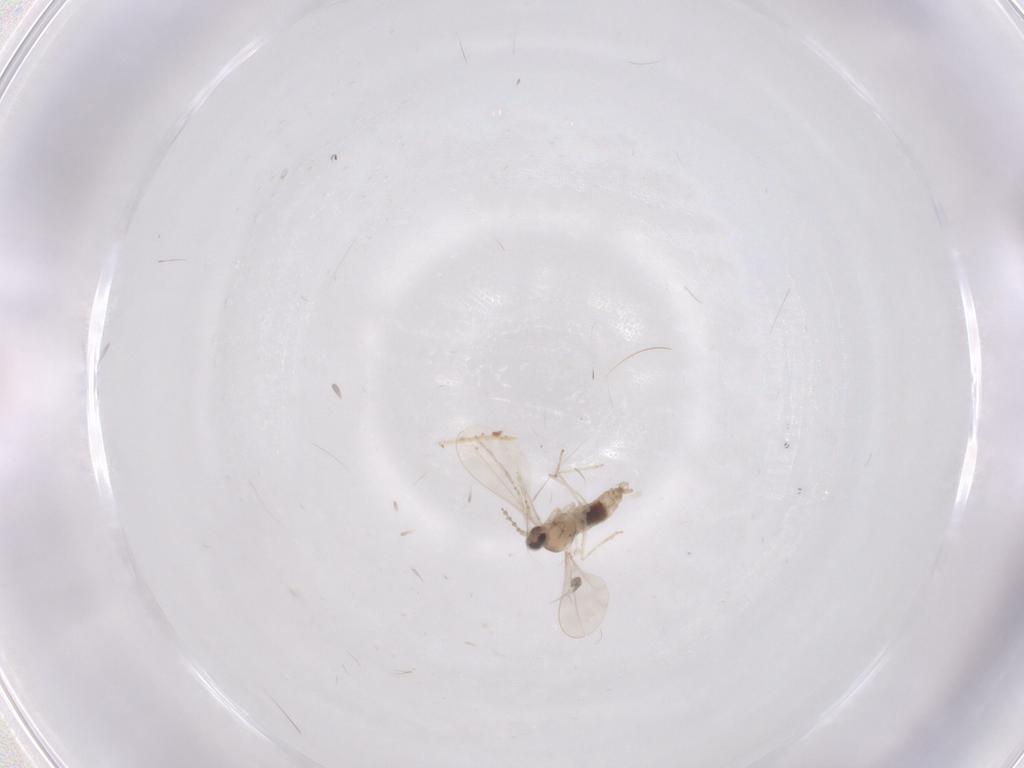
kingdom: Animalia
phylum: Arthropoda
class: Insecta
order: Diptera
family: Cecidomyiidae
